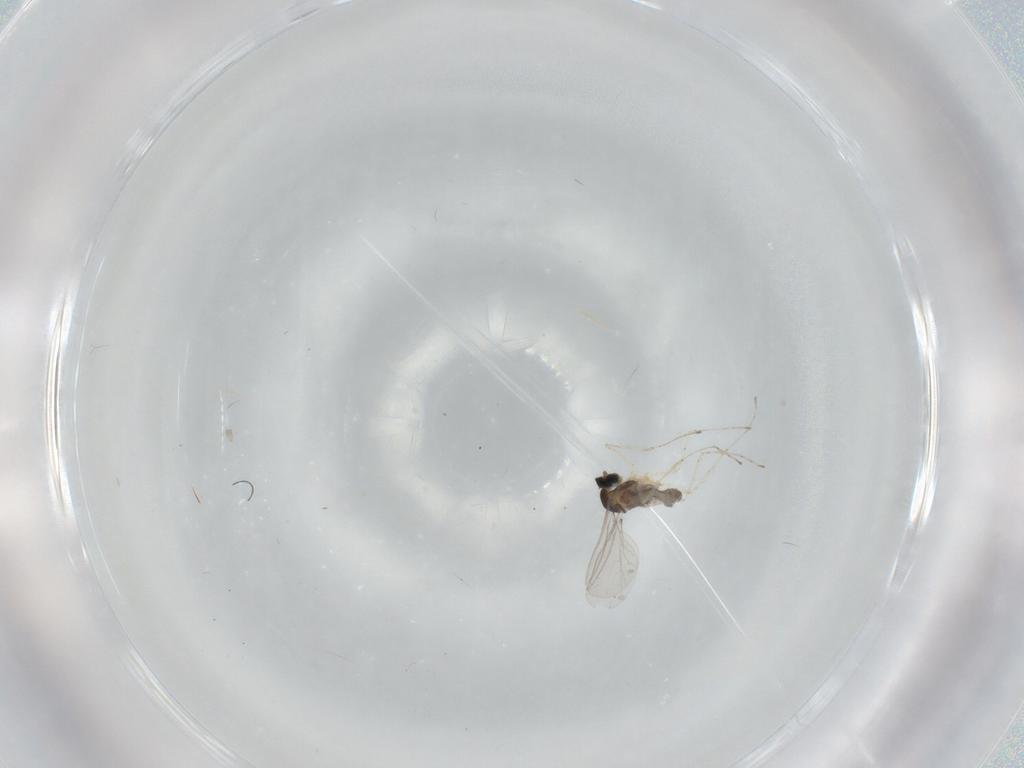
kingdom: Animalia
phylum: Arthropoda
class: Insecta
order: Diptera
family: Cecidomyiidae
